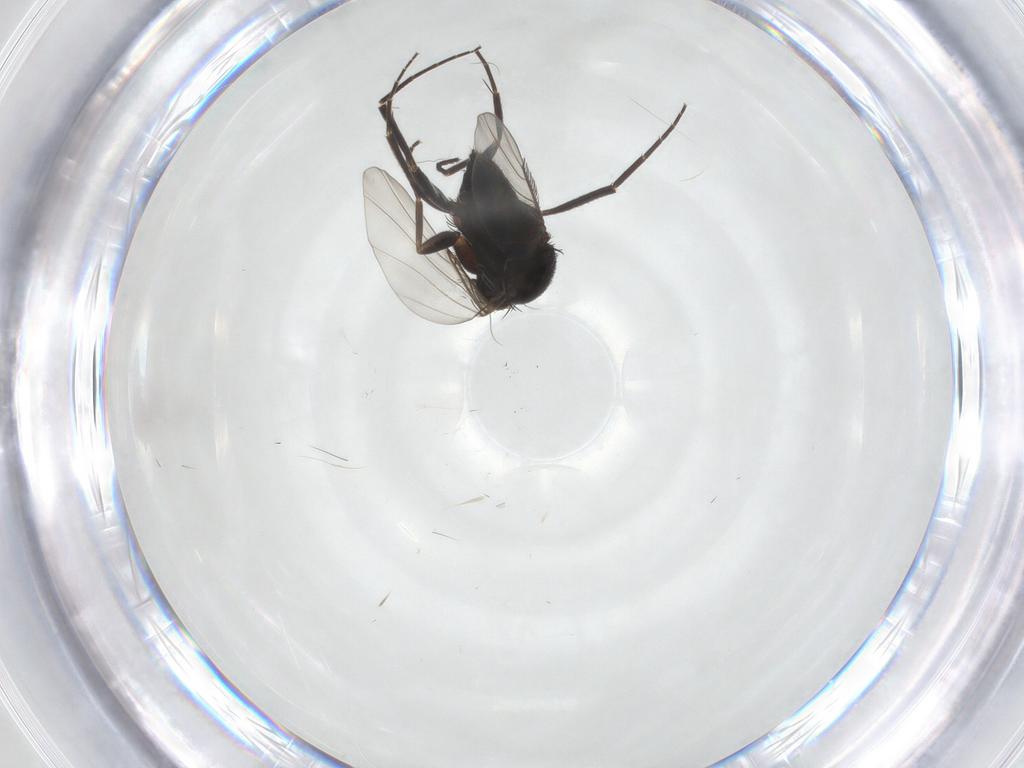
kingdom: Animalia
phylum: Arthropoda
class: Insecta
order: Diptera
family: Phoridae
